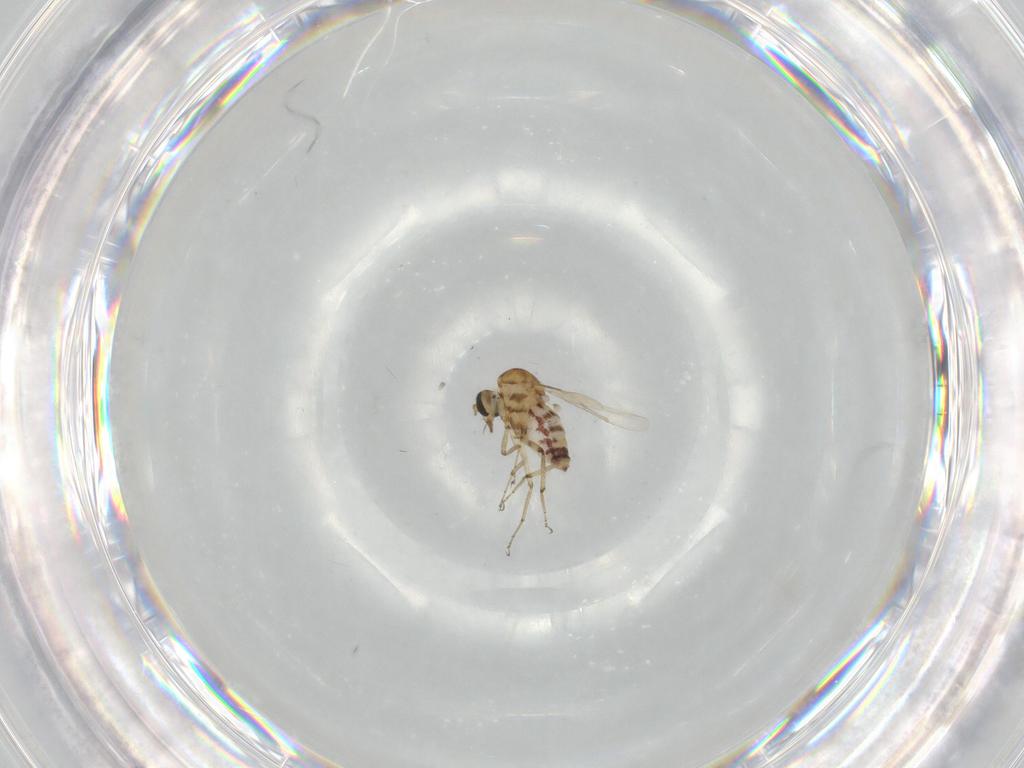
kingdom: Animalia
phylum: Arthropoda
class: Insecta
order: Diptera
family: Ceratopogonidae
